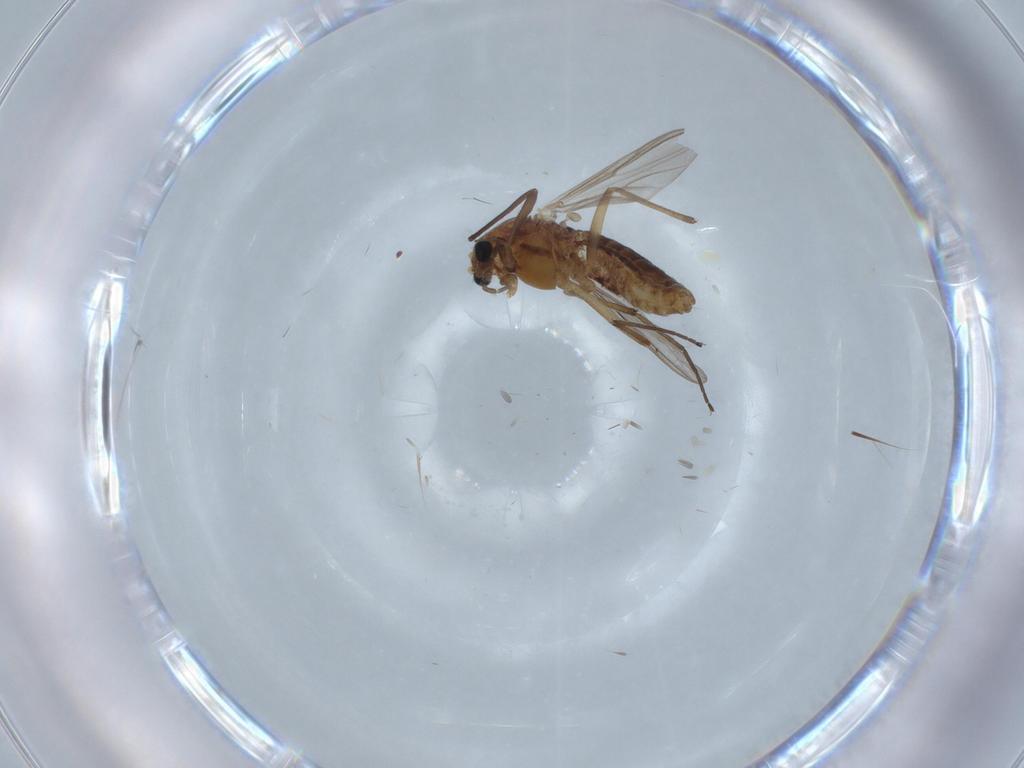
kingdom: Animalia
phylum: Arthropoda
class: Insecta
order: Diptera
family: Chironomidae
